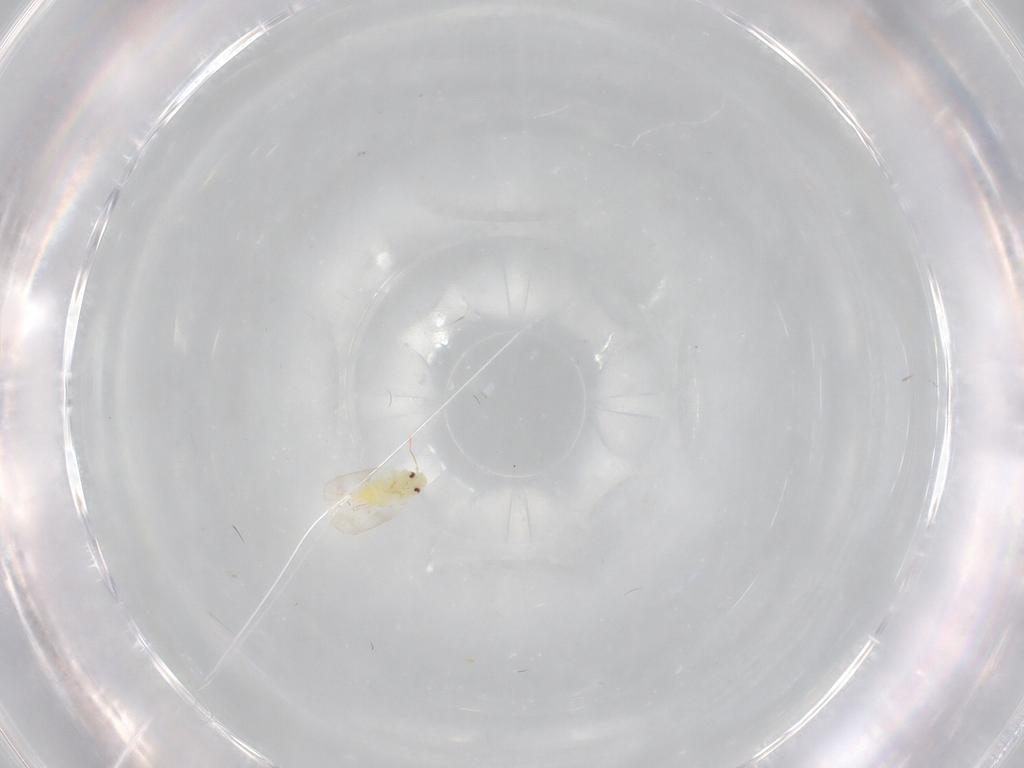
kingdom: Animalia
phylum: Arthropoda
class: Insecta
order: Hemiptera
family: Aleyrodidae
